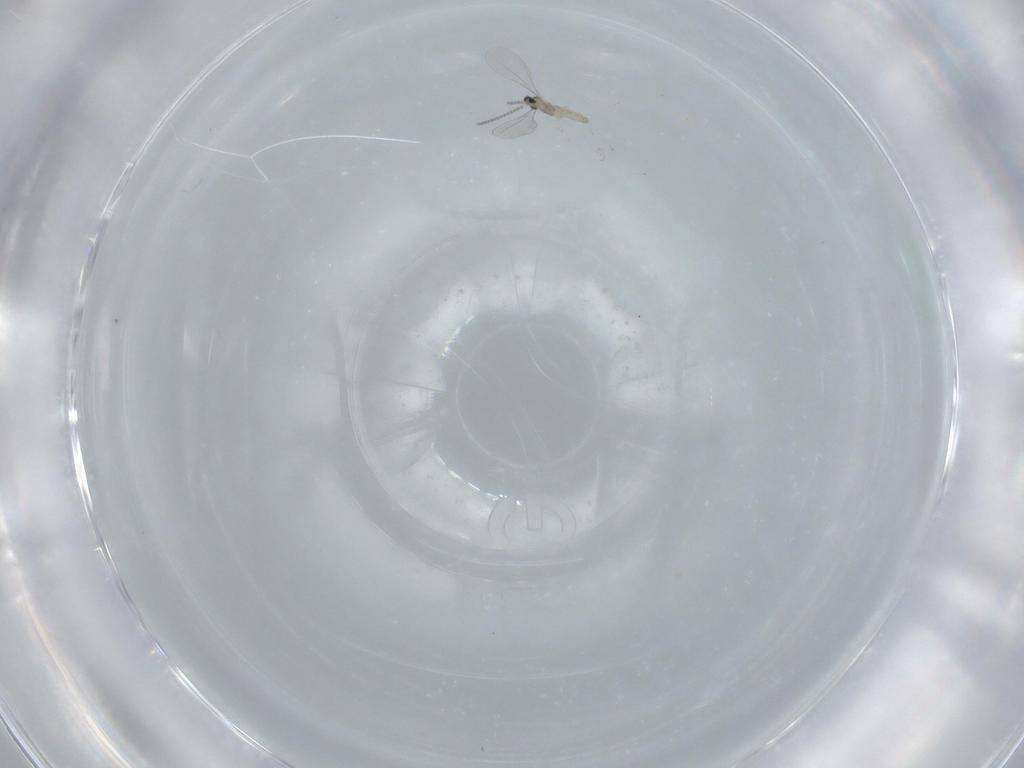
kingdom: Animalia
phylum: Arthropoda
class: Insecta
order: Diptera
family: Cecidomyiidae
